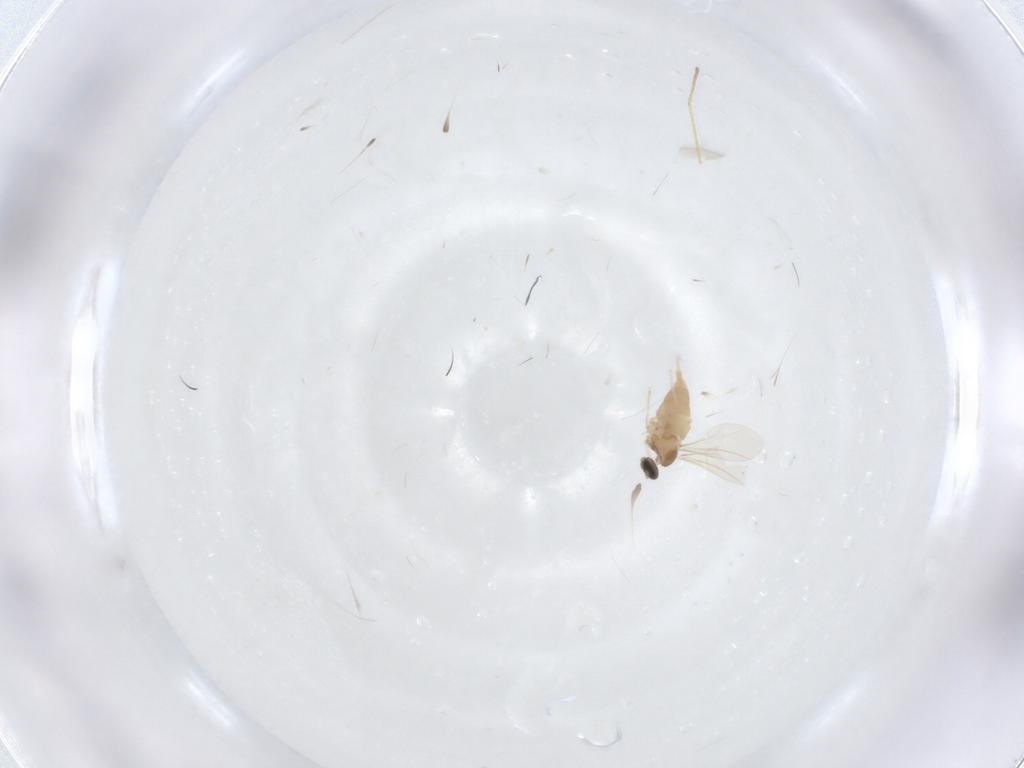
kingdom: Animalia
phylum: Arthropoda
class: Insecta
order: Diptera
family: Limoniidae
